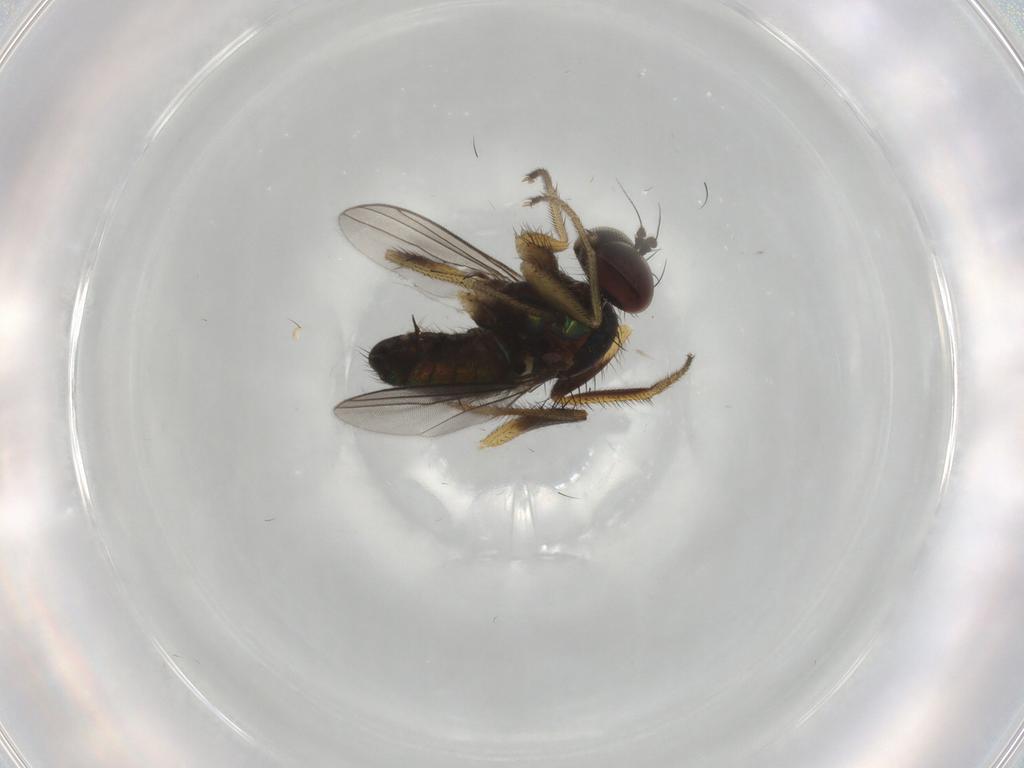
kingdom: Animalia
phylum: Arthropoda
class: Insecta
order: Diptera
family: Dolichopodidae
